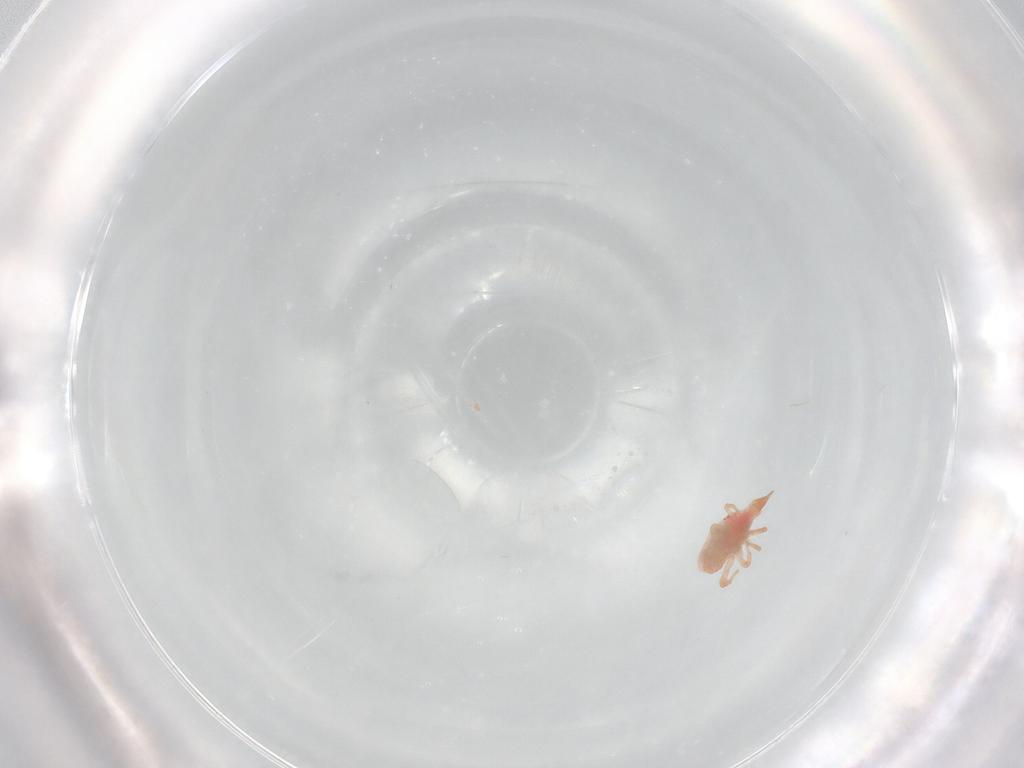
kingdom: Animalia
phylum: Arthropoda
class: Arachnida
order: Trombidiformes
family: Bdellidae
